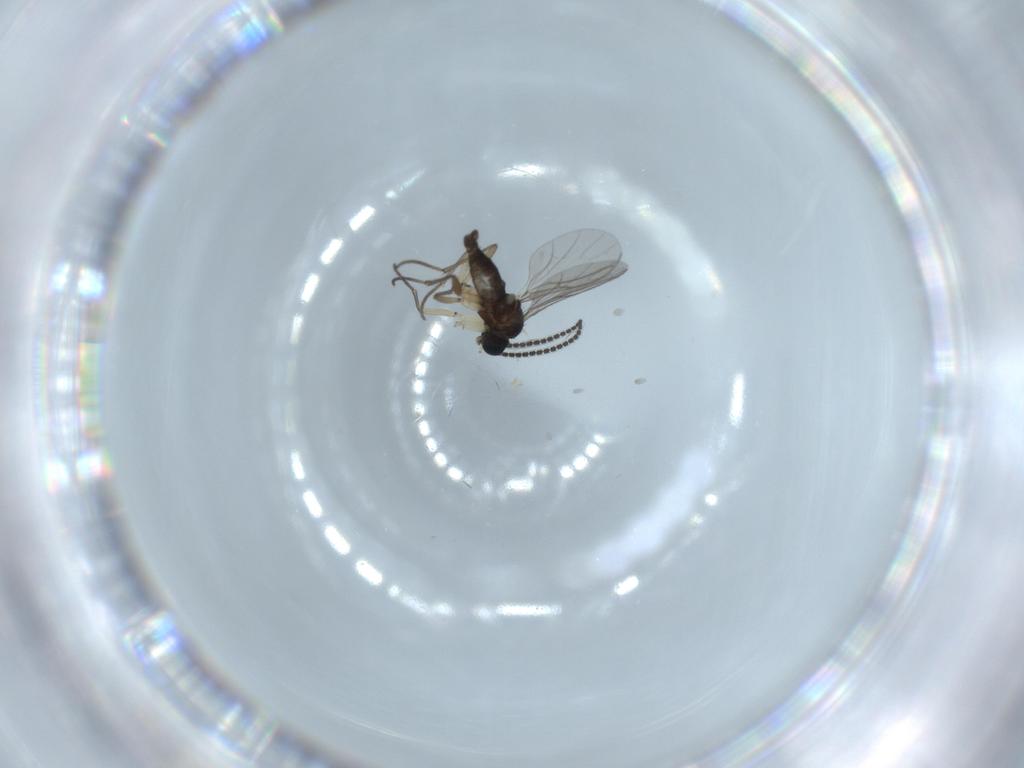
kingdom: Animalia
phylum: Arthropoda
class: Insecta
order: Diptera
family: Sciaridae
